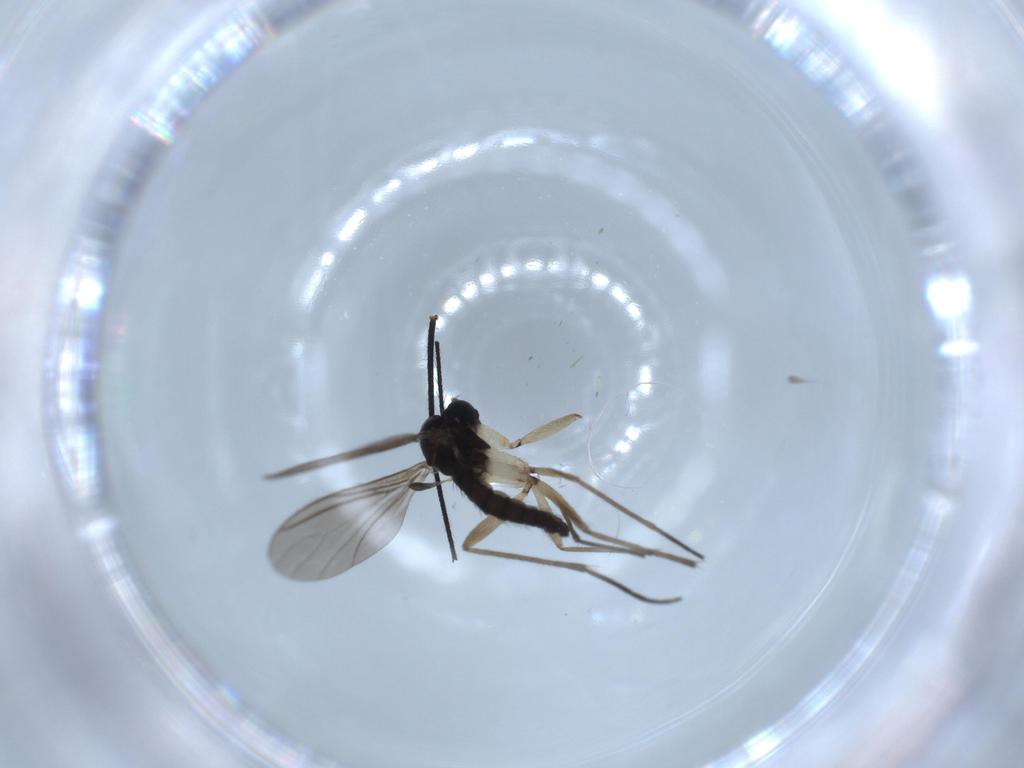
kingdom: Animalia
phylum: Arthropoda
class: Insecta
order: Diptera
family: Sciaridae
